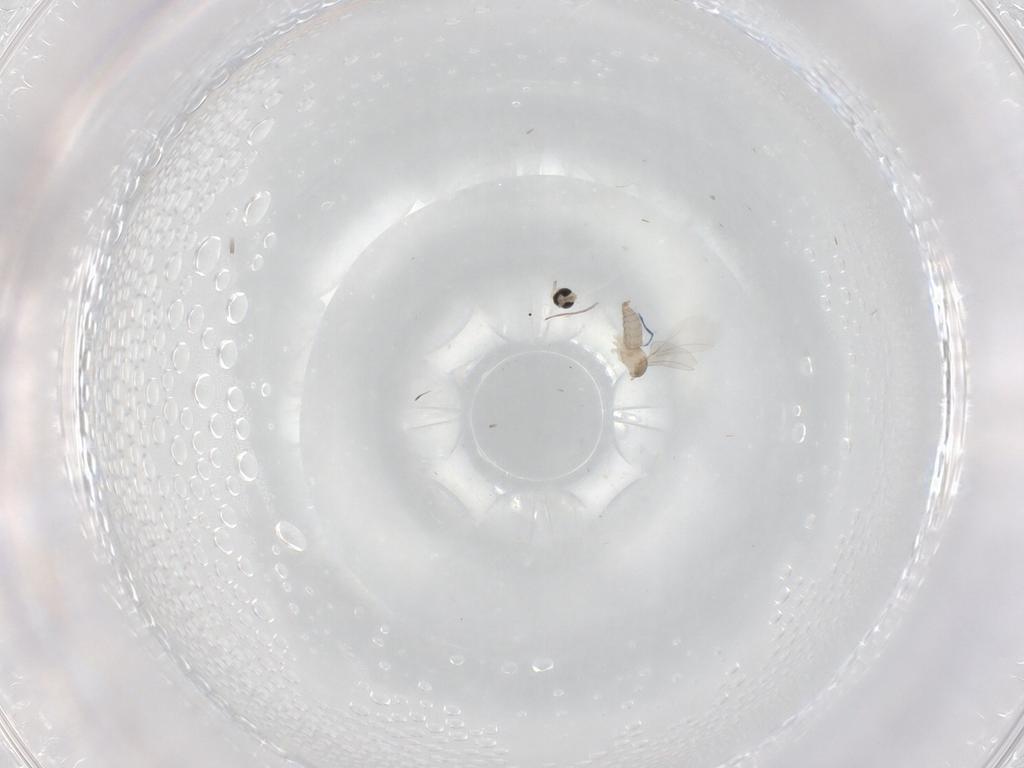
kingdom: Animalia
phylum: Arthropoda
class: Insecta
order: Diptera
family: Cecidomyiidae
